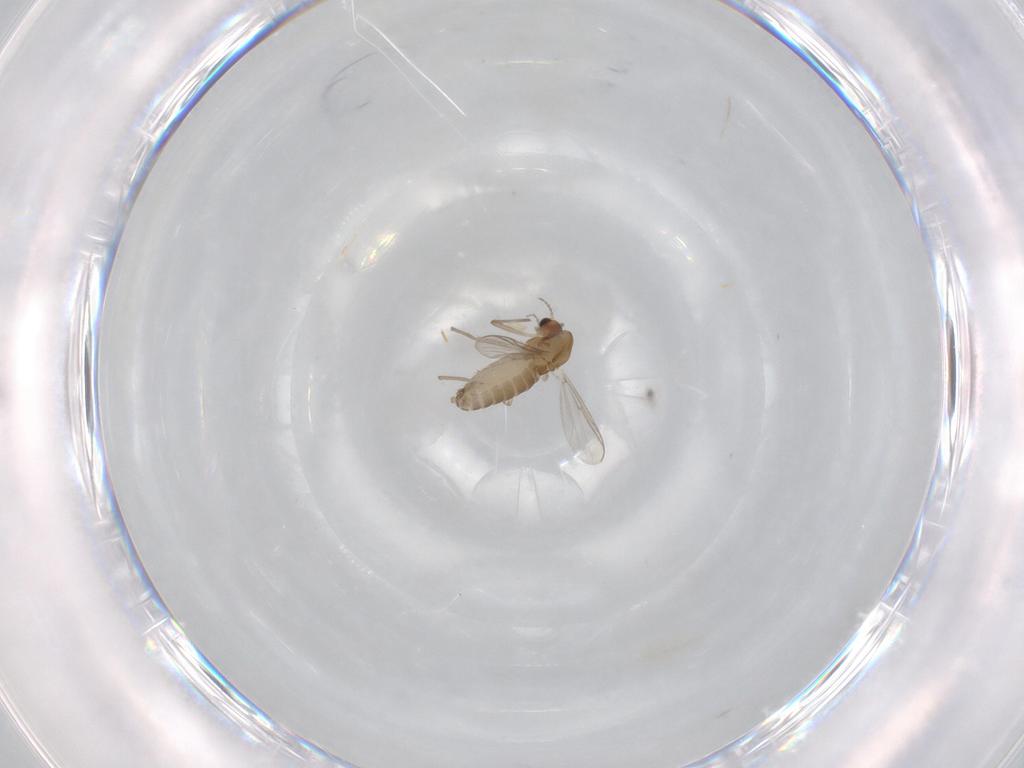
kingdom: Animalia
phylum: Arthropoda
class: Insecta
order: Diptera
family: Chironomidae
